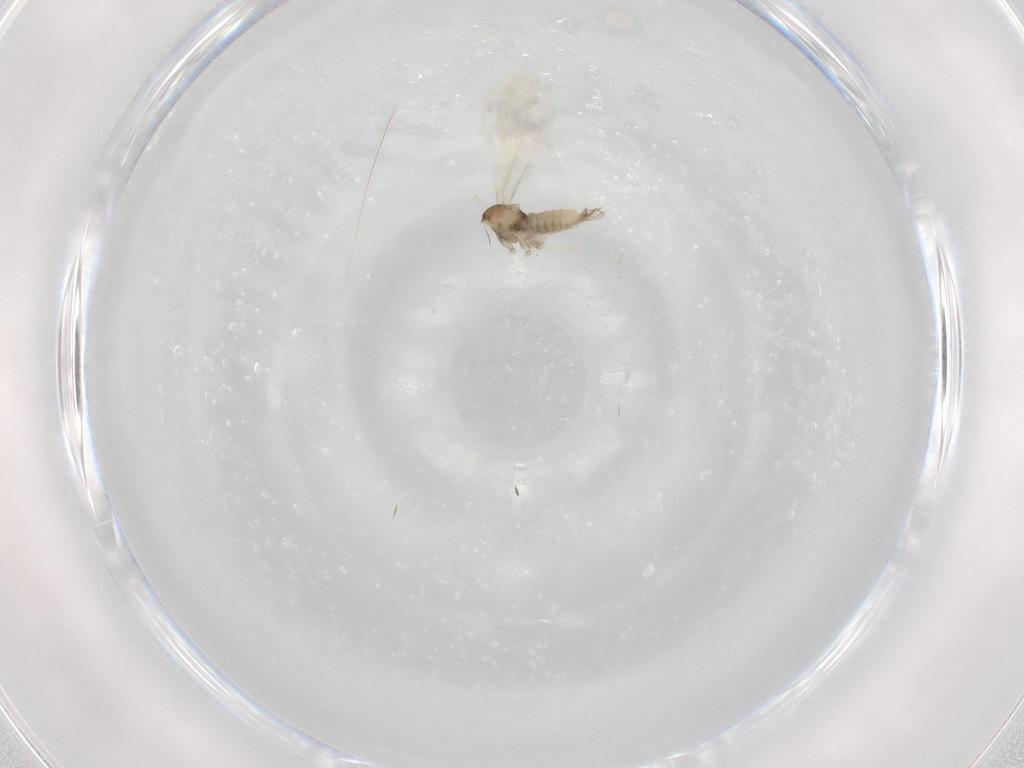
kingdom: Animalia
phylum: Arthropoda
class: Insecta
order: Diptera
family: Cecidomyiidae
